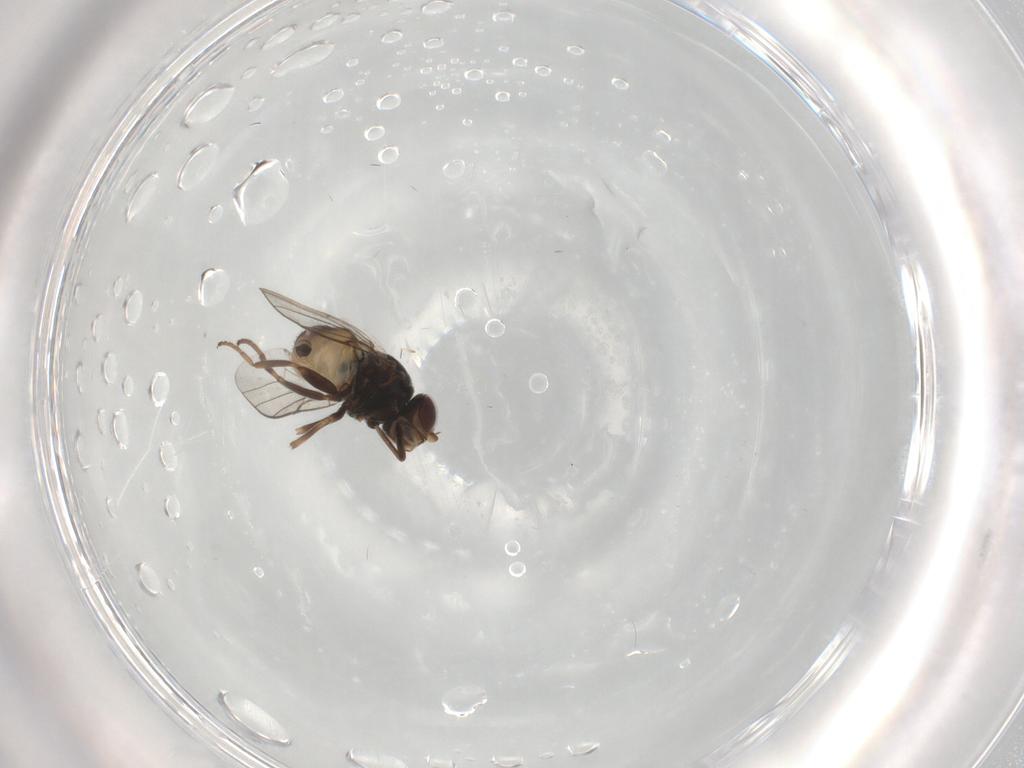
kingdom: Animalia
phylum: Arthropoda
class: Insecta
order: Diptera
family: Chloropidae
